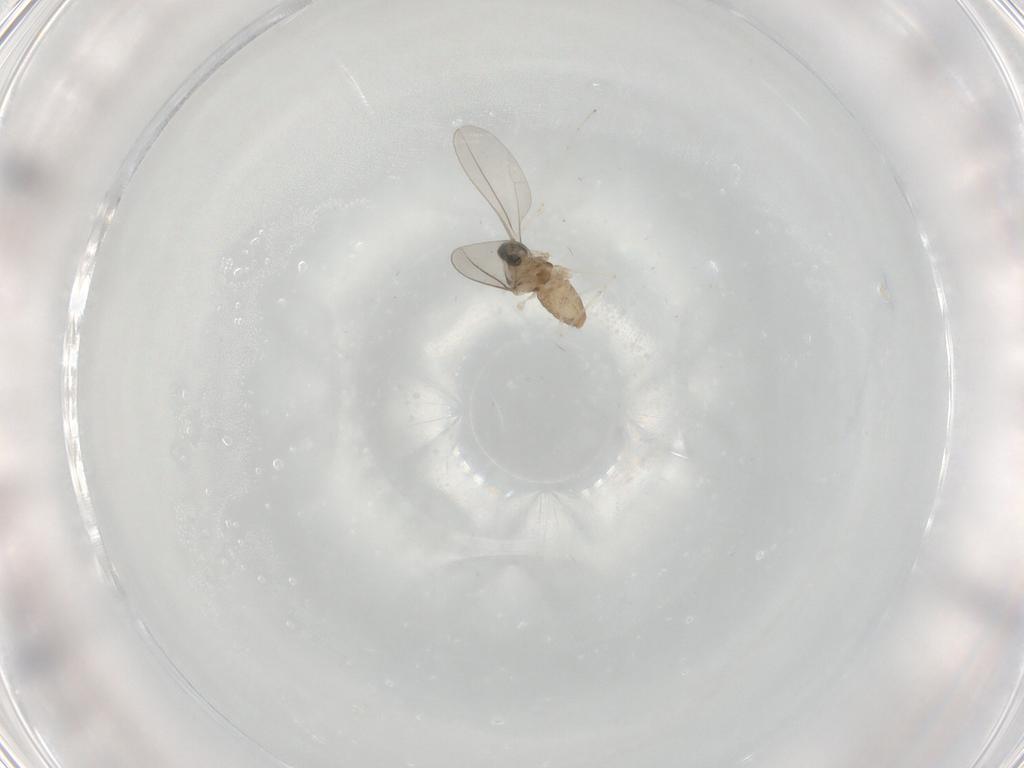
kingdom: Animalia
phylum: Arthropoda
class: Insecta
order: Diptera
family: Cecidomyiidae
